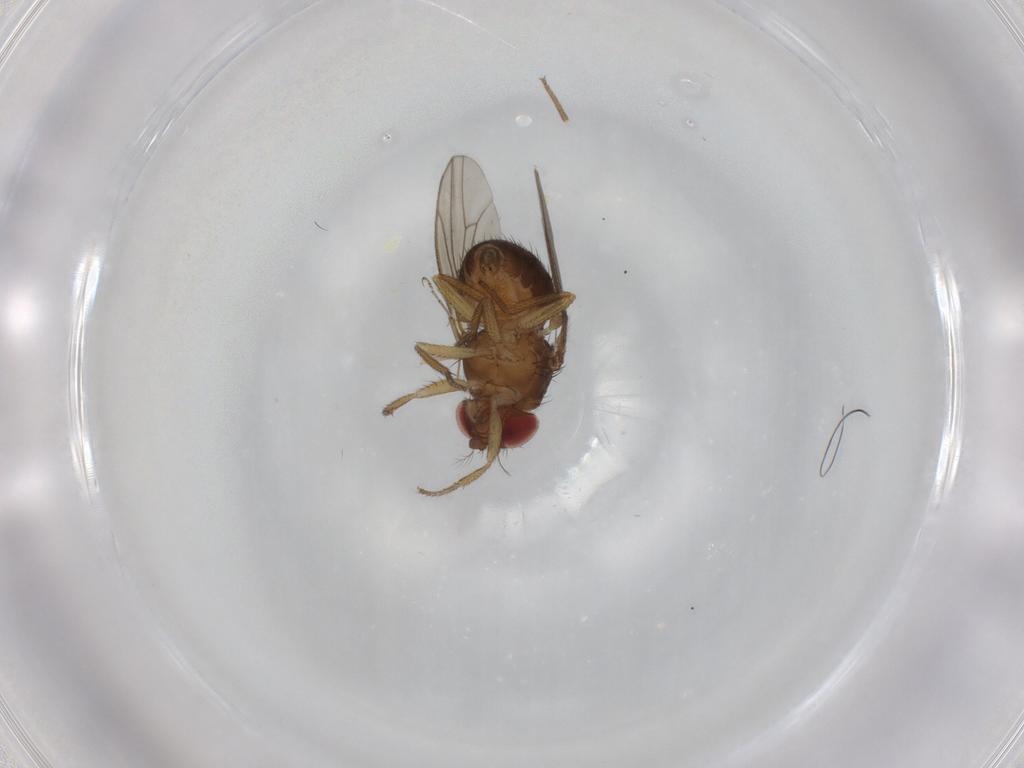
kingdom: Animalia
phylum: Arthropoda
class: Insecta
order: Diptera
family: Drosophilidae
